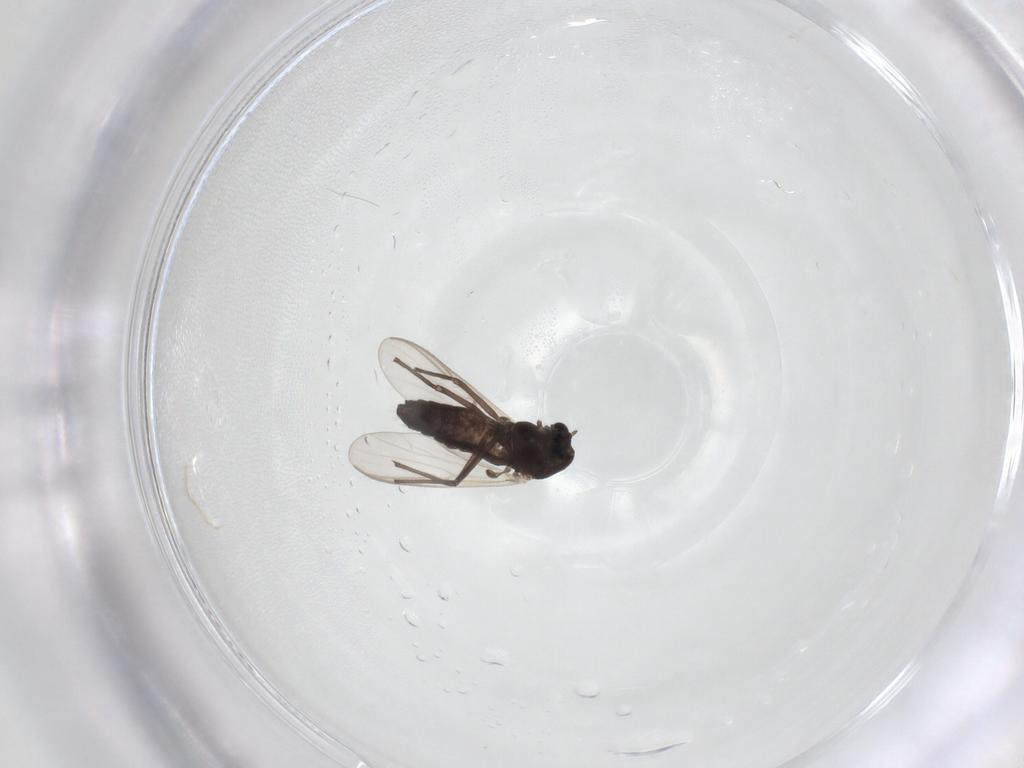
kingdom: Animalia
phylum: Arthropoda
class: Insecta
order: Diptera
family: Chironomidae
